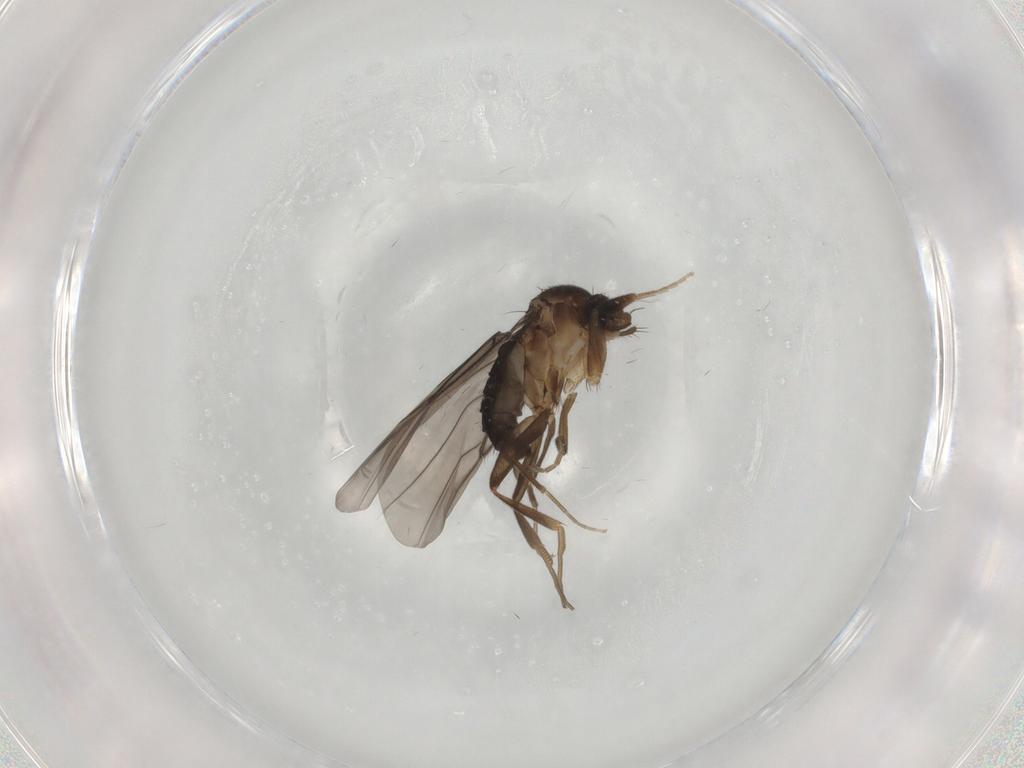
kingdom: Animalia
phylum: Arthropoda
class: Insecta
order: Diptera
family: Phoridae
